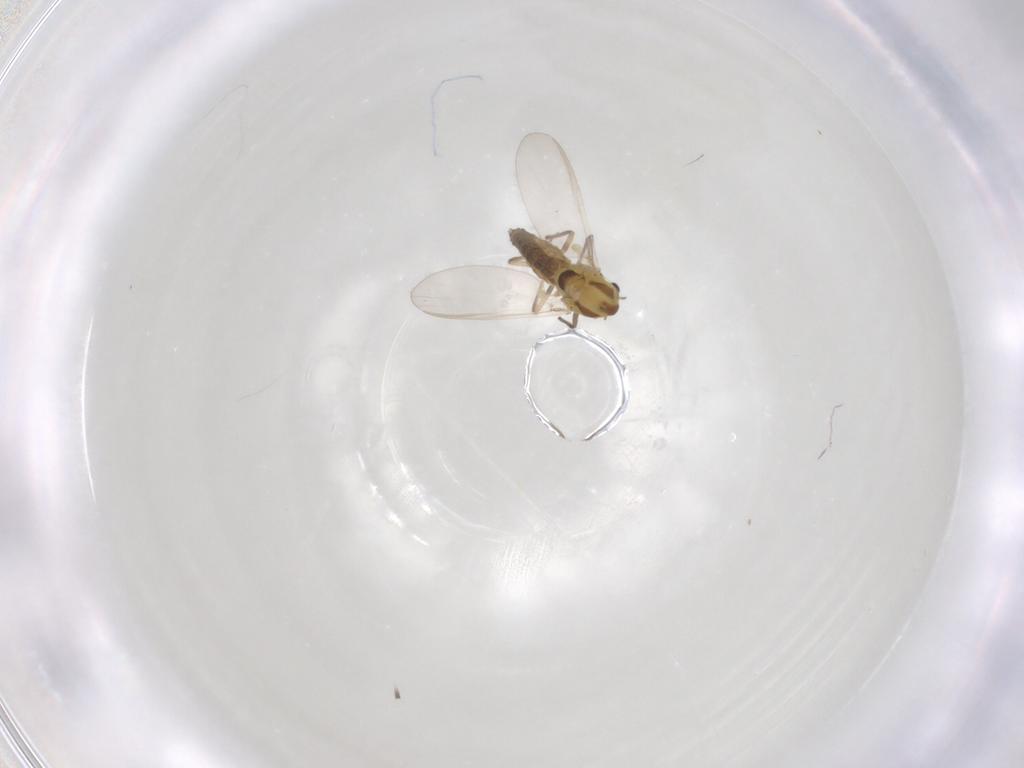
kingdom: Animalia
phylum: Arthropoda
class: Insecta
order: Diptera
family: Chironomidae
